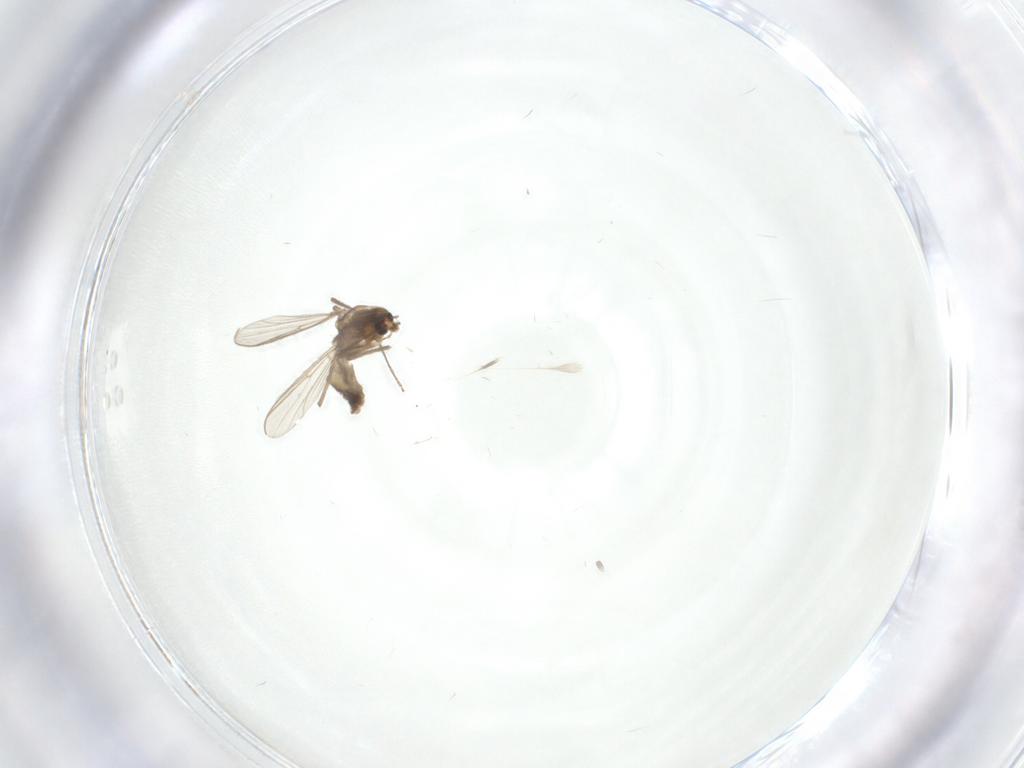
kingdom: Animalia
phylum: Arthropoda
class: Insecta
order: Diptera
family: Chironomidae
